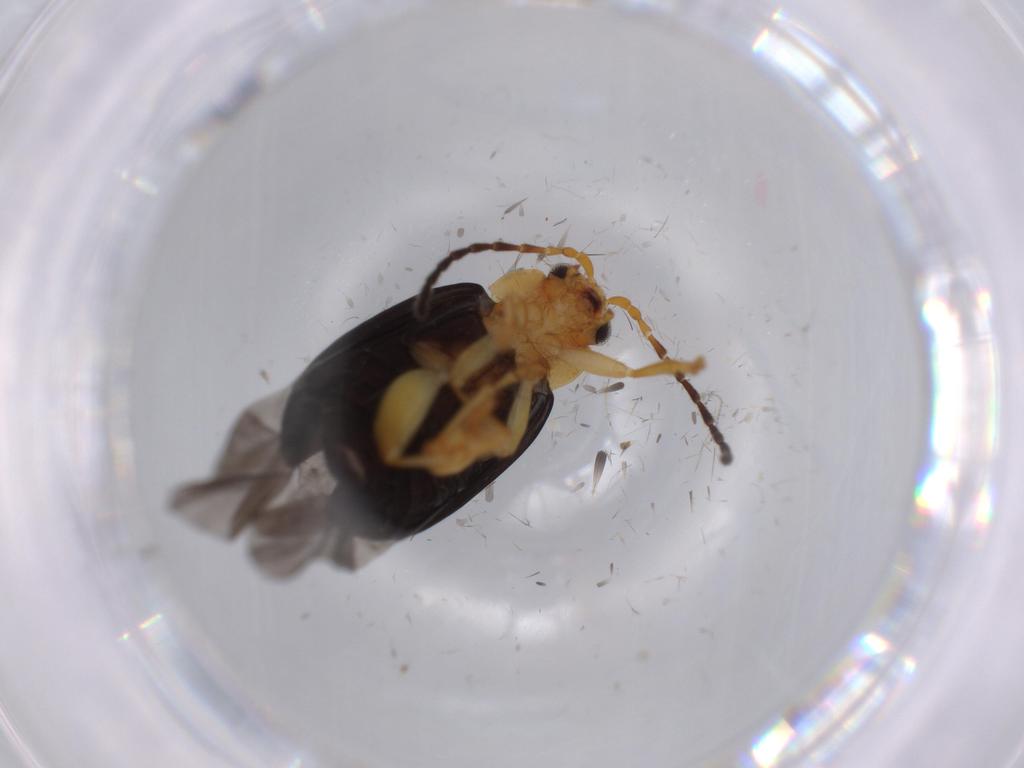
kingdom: Animalia
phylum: Arthropoda
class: Insecta
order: Coleoptera
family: Chrysomelidae
